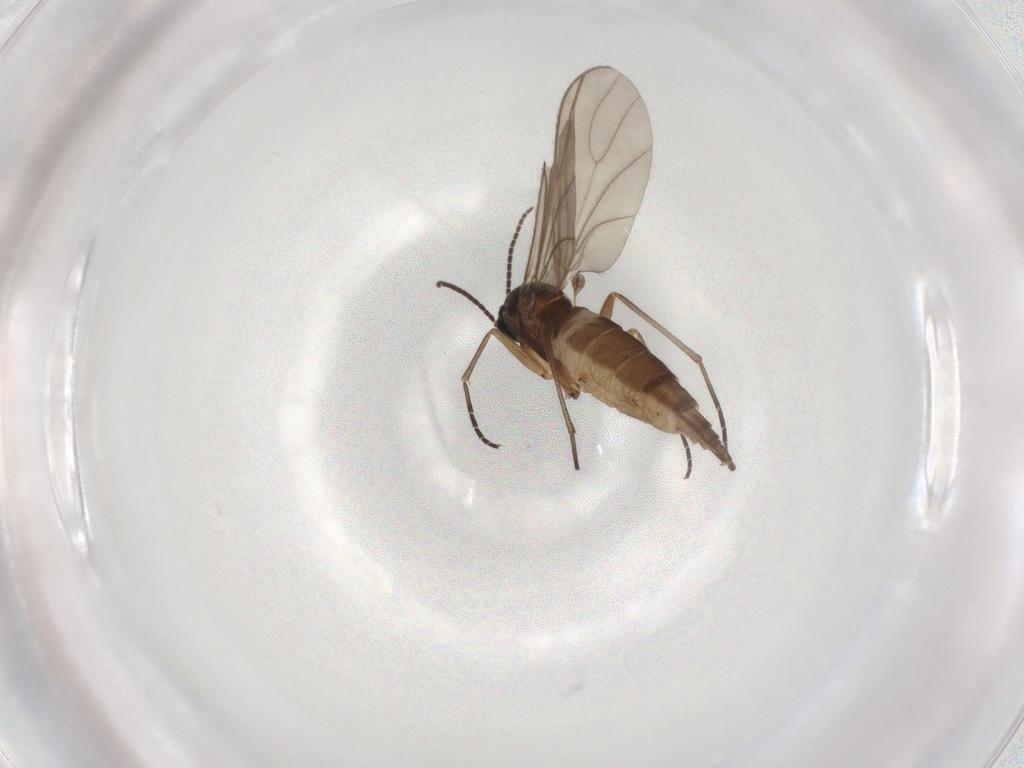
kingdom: Animalia
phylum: Arthropoda
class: Insecta
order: Diptera
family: Sciaridae
